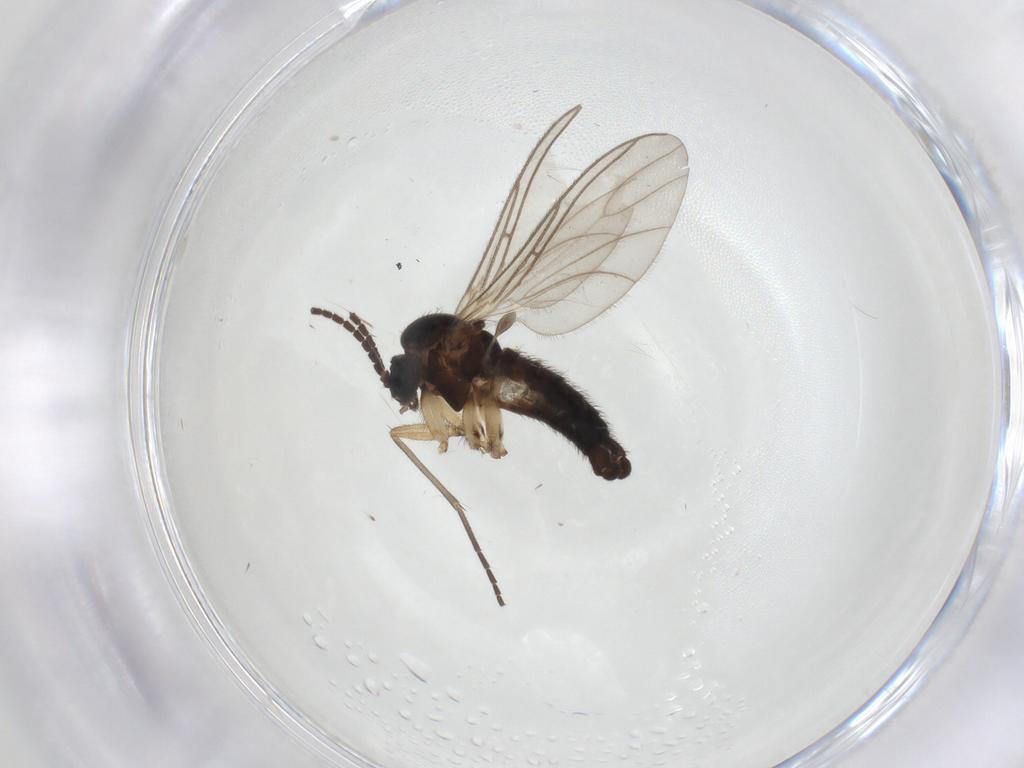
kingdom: Animalia
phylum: Arthropoda
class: Insecta
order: Diptera
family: Sciaridae
